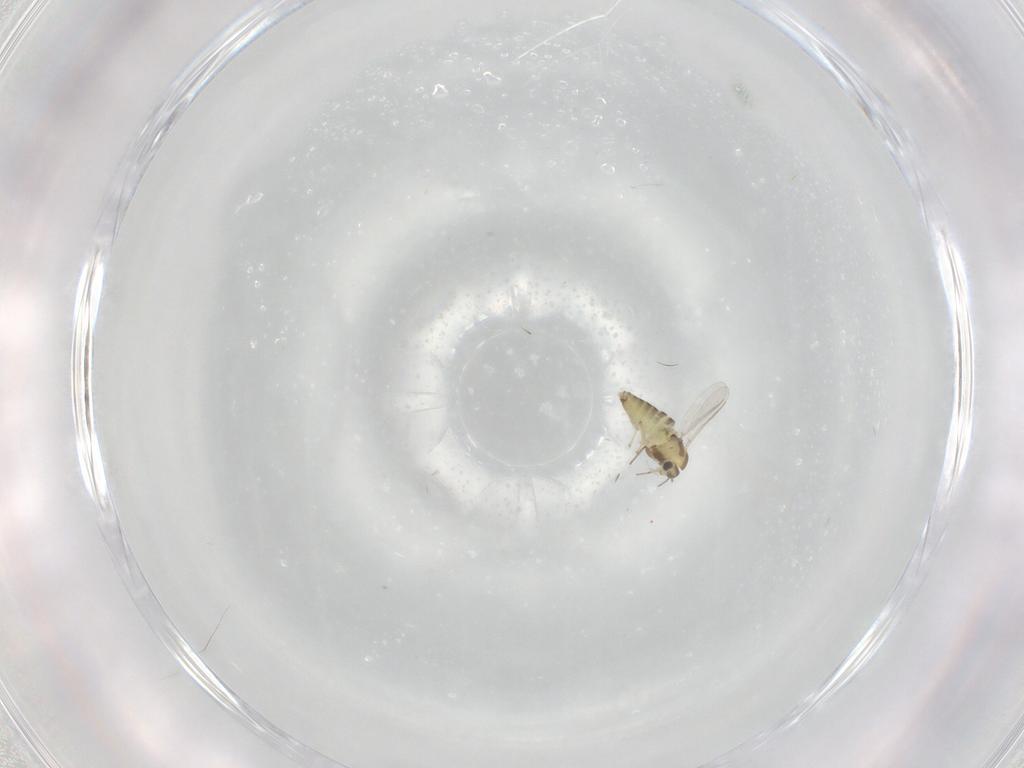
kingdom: Animalia
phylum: Arthropoda
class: Insecta
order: Diptera
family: Chironomidae
